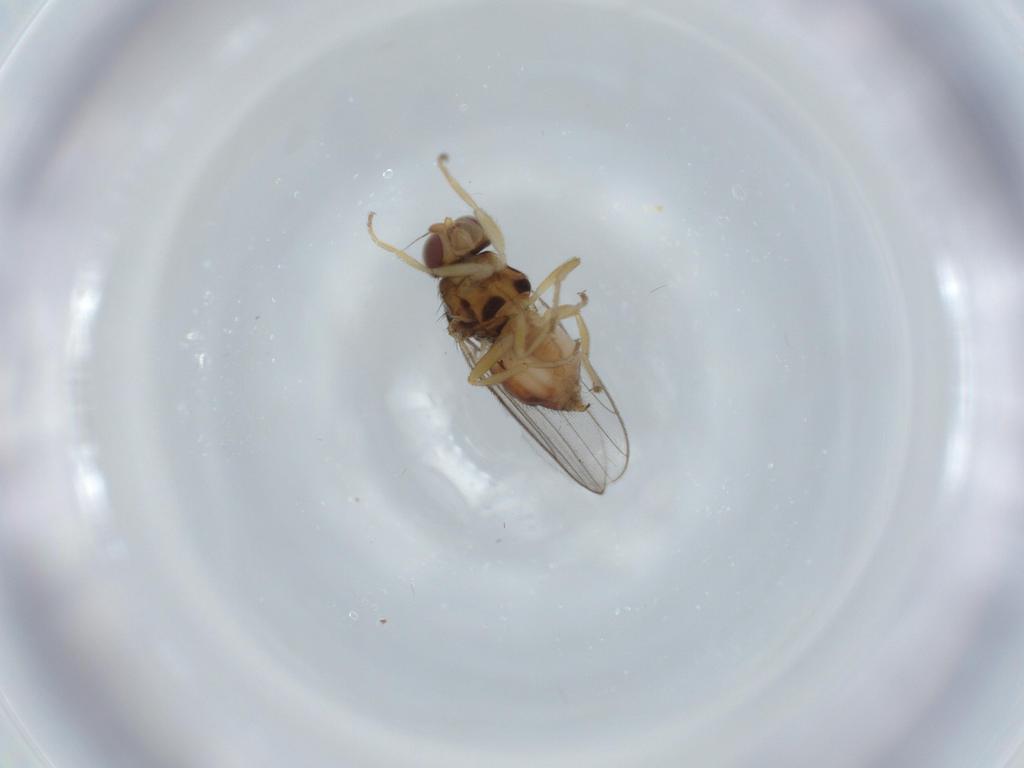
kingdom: Animalia
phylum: Arthropoda
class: Insecta
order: Diptera
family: Chloropidae
